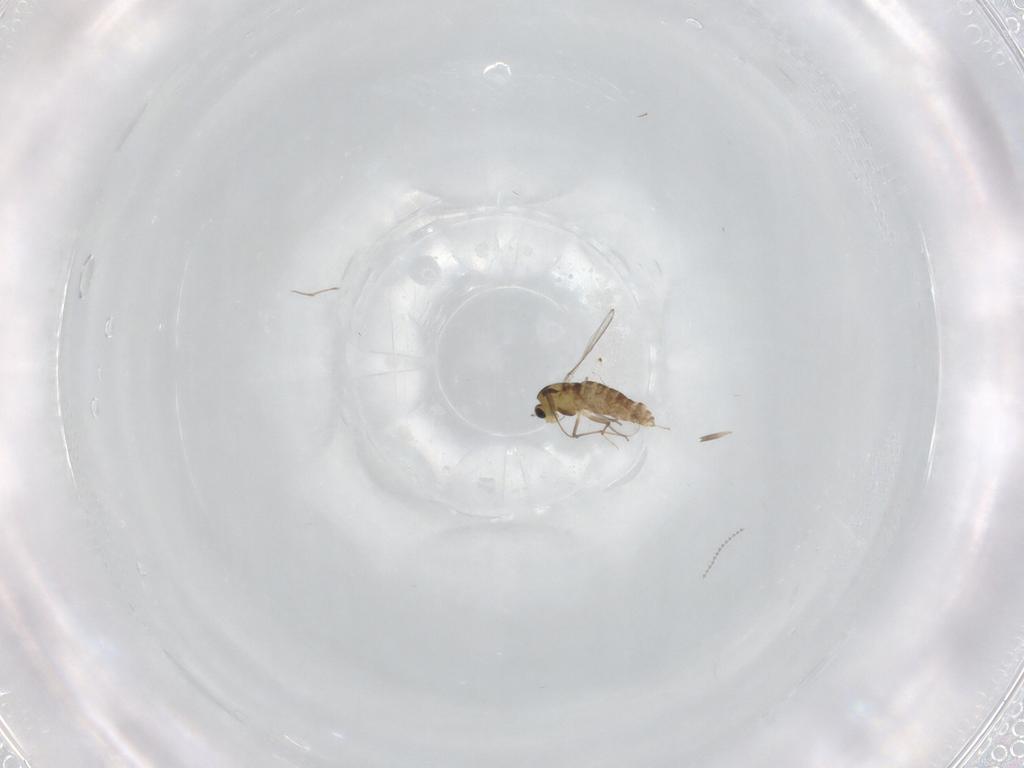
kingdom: Animalia
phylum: Arthropoda
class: Insecta
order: Diptera
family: Chironomidae
